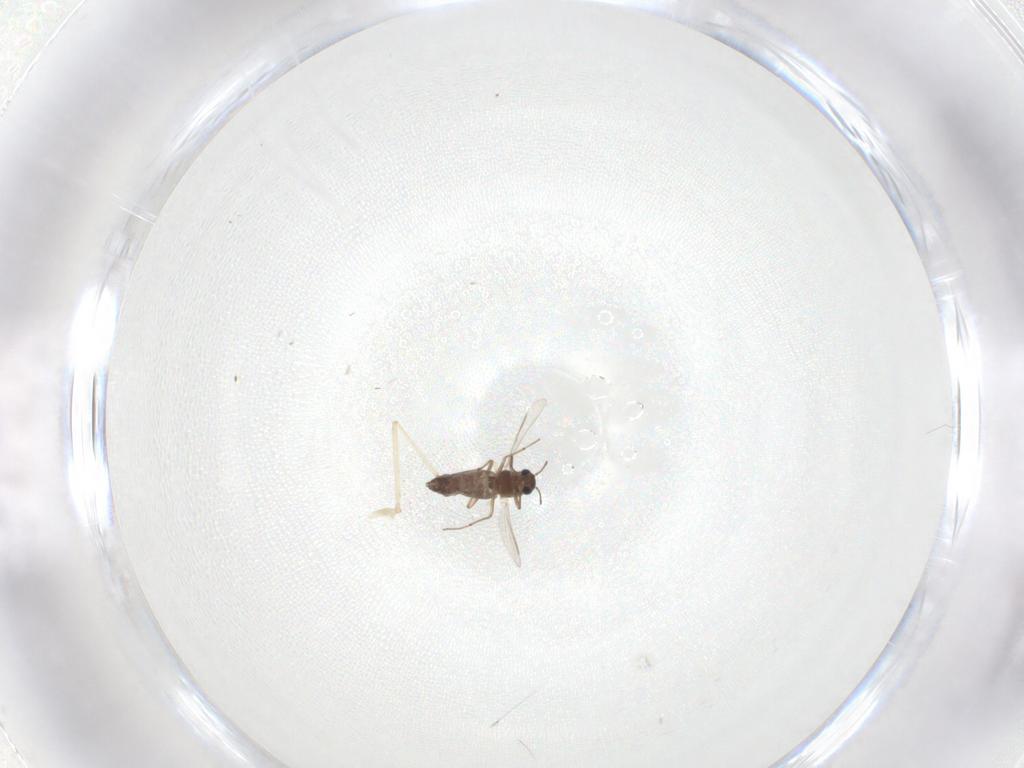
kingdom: Animalia
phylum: Arthropoda
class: Insecta
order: Diptera
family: Chironomidae
